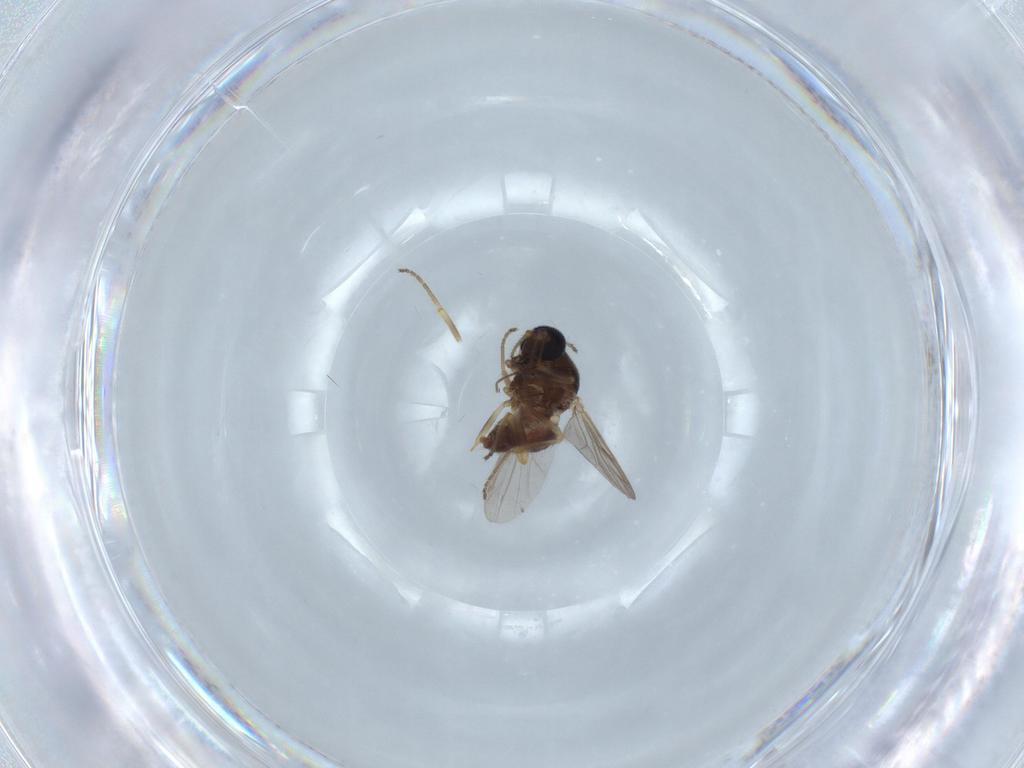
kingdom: Animalia
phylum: Arthropoda
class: Insecta
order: Diptera
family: Ceratopogonidae
